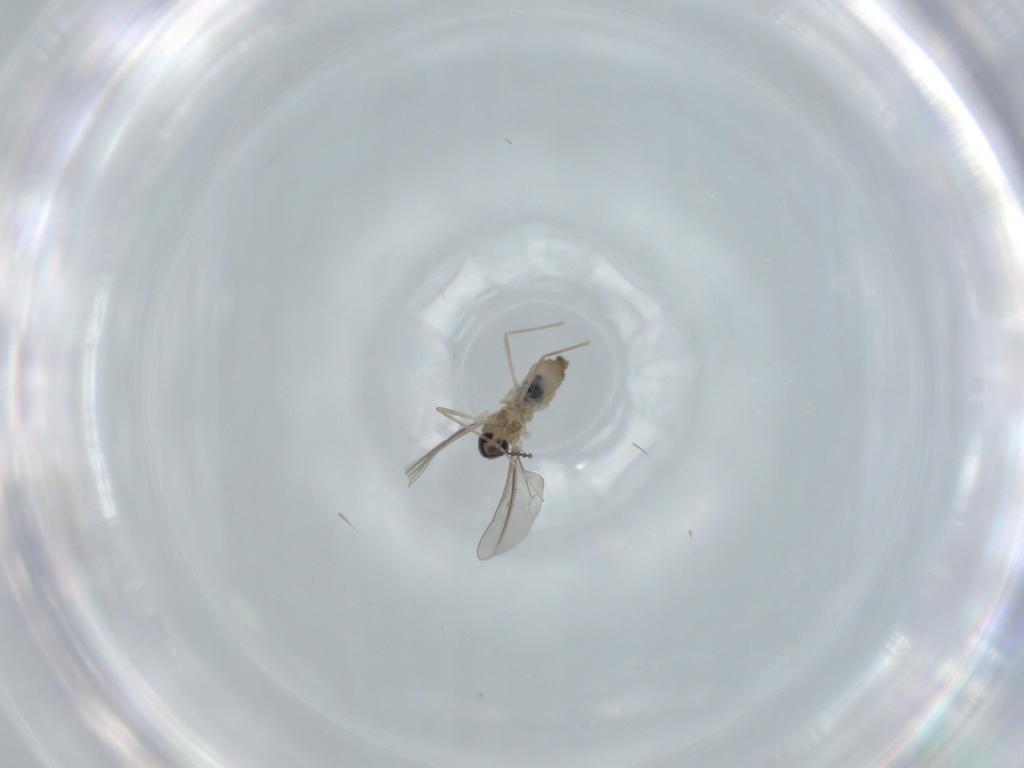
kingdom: Animalia
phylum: Arthropoda
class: Insecta
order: Diptera
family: Cecidomyiidae
